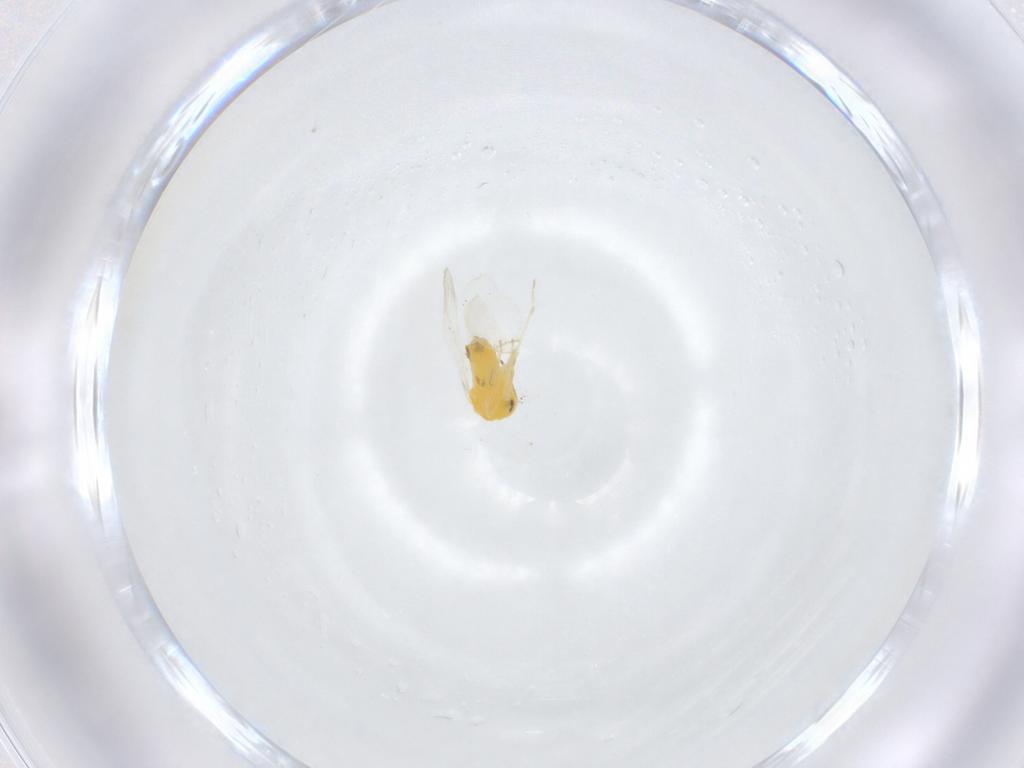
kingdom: Animalia
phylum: Arthropoda
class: Insecta
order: Hemiptera
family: Aleyrodidae
